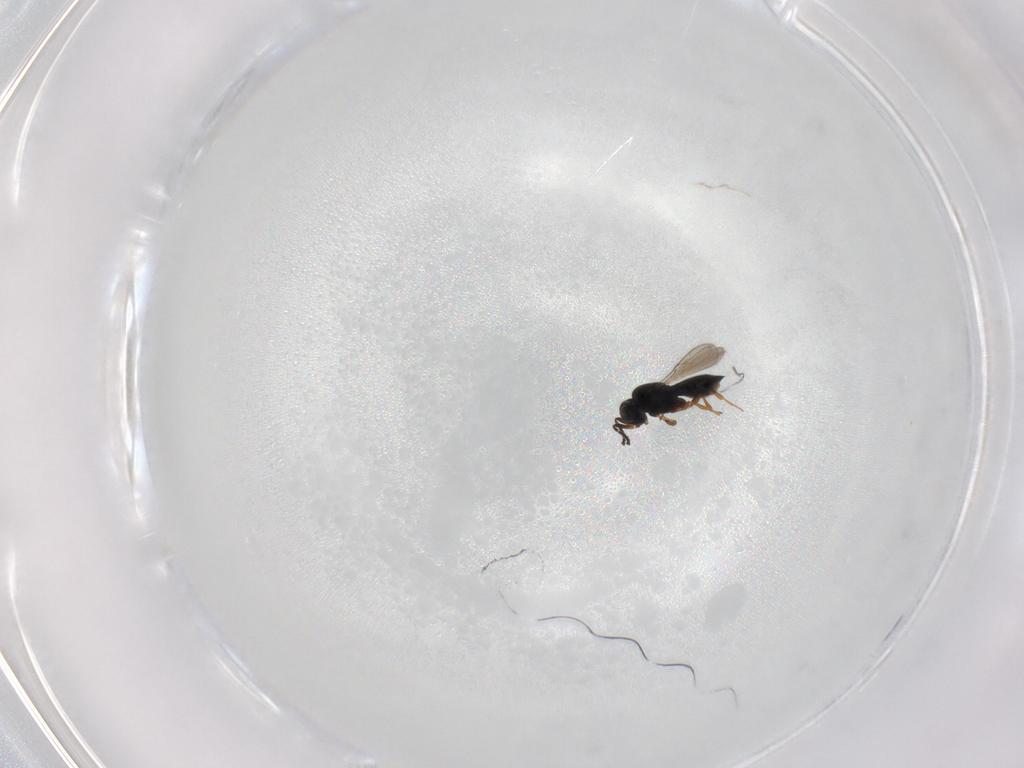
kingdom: Animalia
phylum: Arthropoda
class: Insecta
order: Hymenoptera
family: Scelionidae
